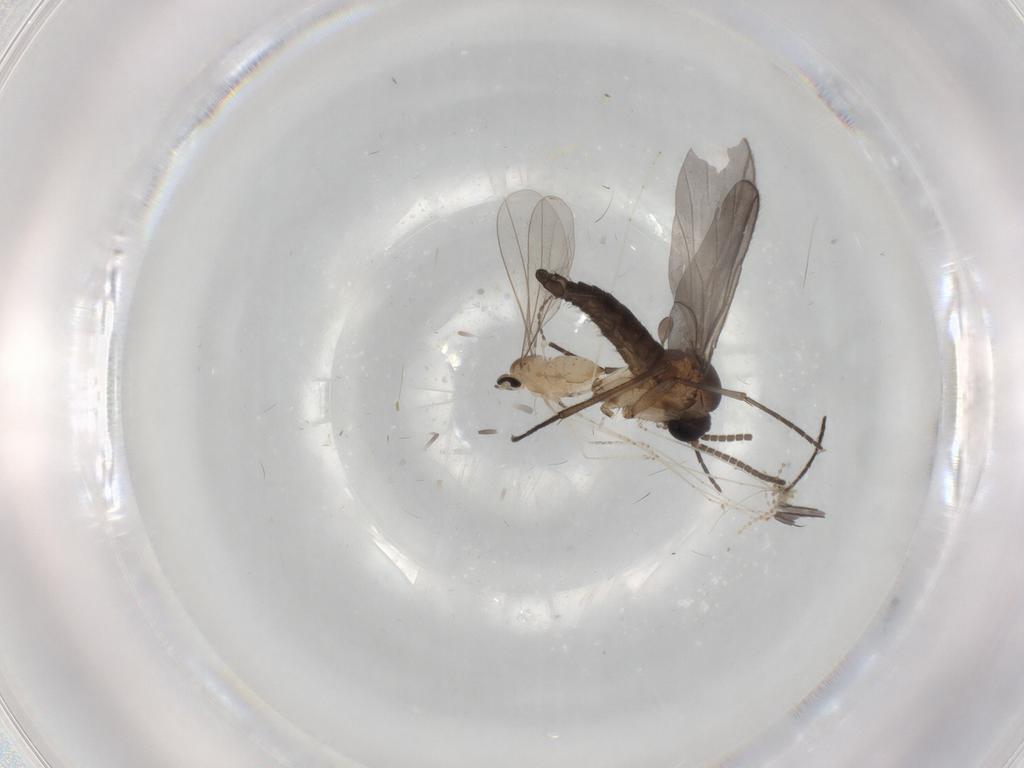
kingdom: Animalia
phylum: Arthropoda
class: Insecta
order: Diptera
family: Cecidomyiidae
